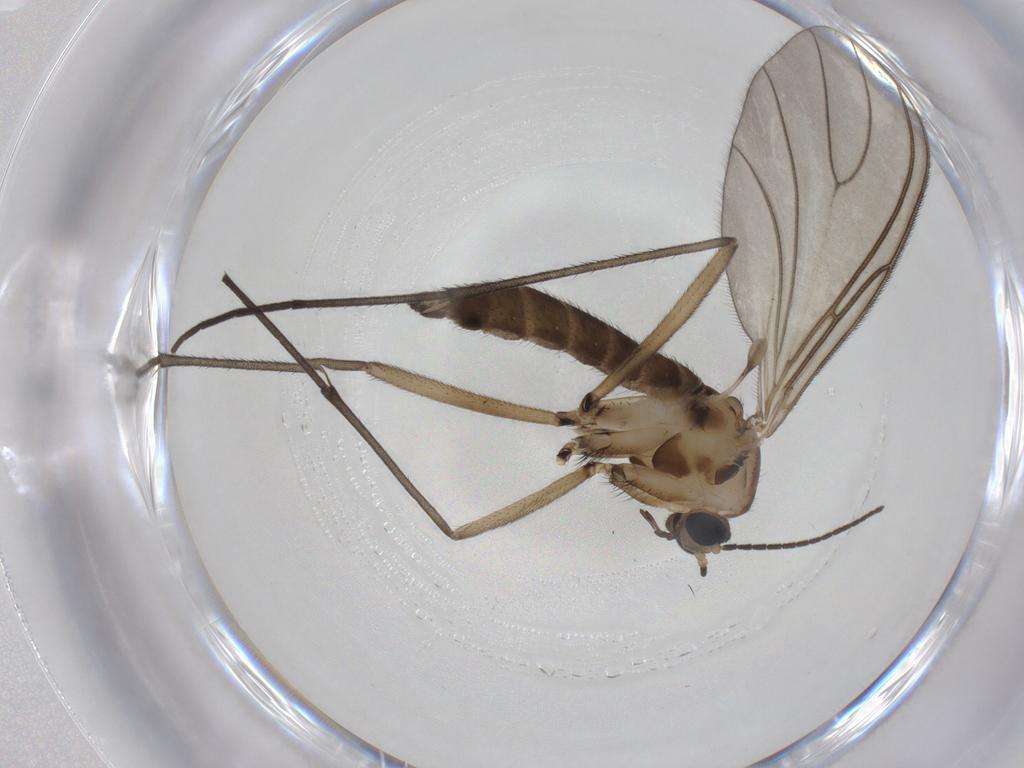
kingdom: Animalia
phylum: Arthropoda
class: Insecta
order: Diptera
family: Sciaridae
